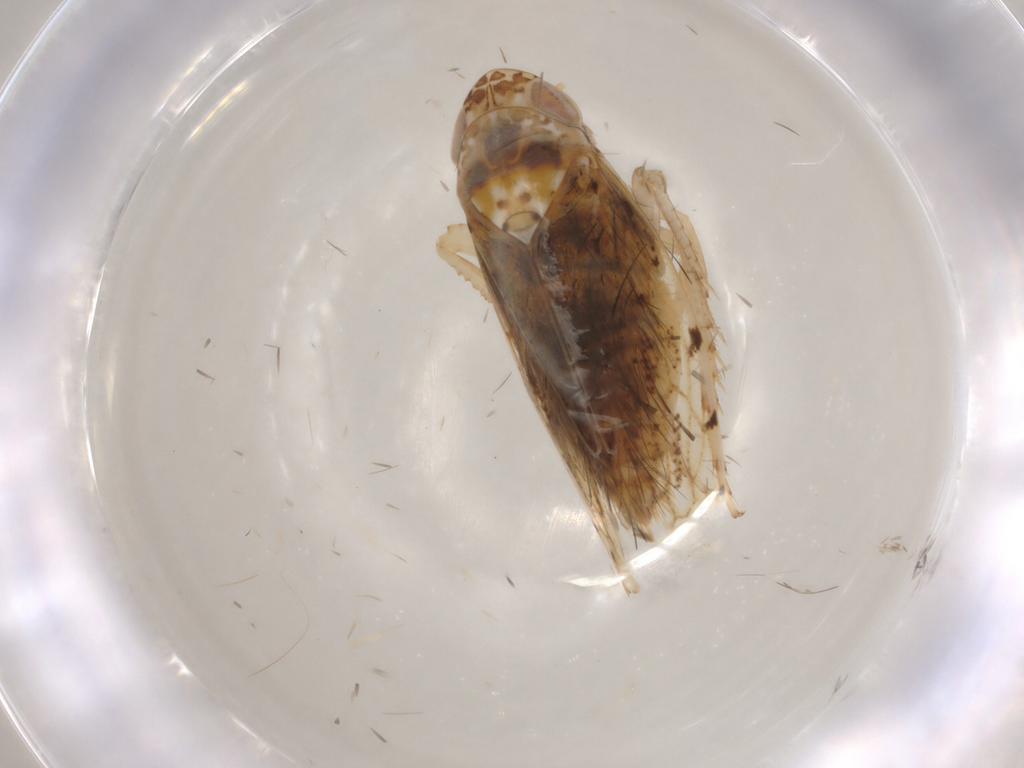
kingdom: Animalia
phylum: Arthropoda
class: Insecta
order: Hemiptera
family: Cicadellidae
